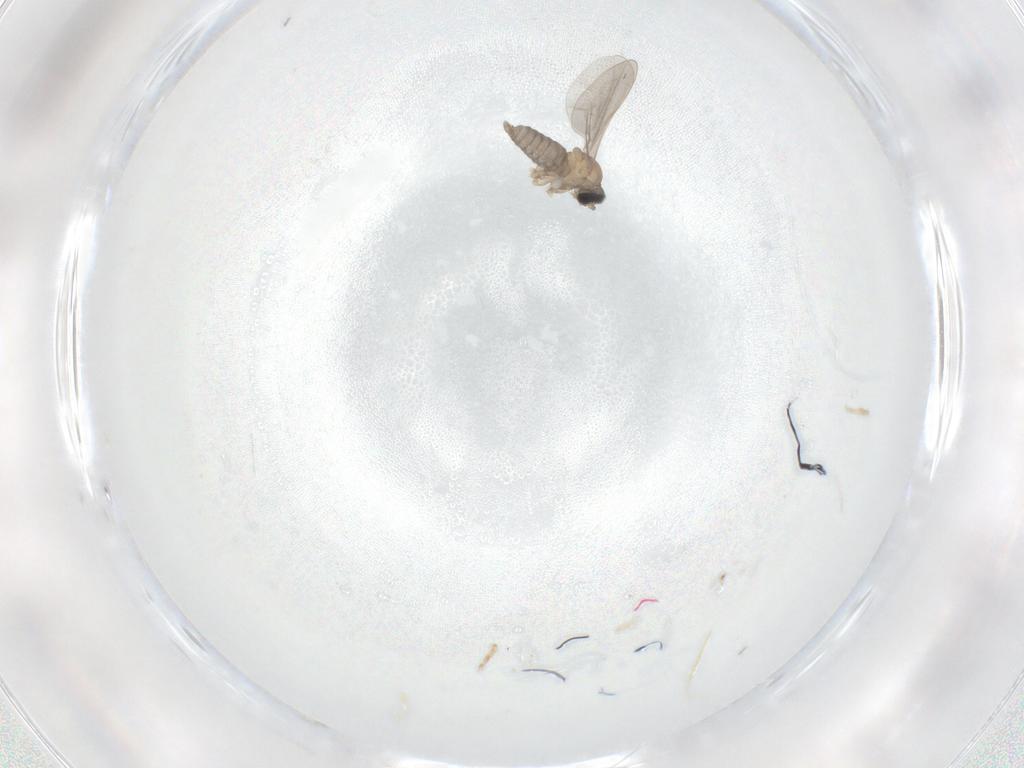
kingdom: Animalia
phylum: Arthropoda
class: Insecta
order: Diptera
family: Cecidomyiidae
